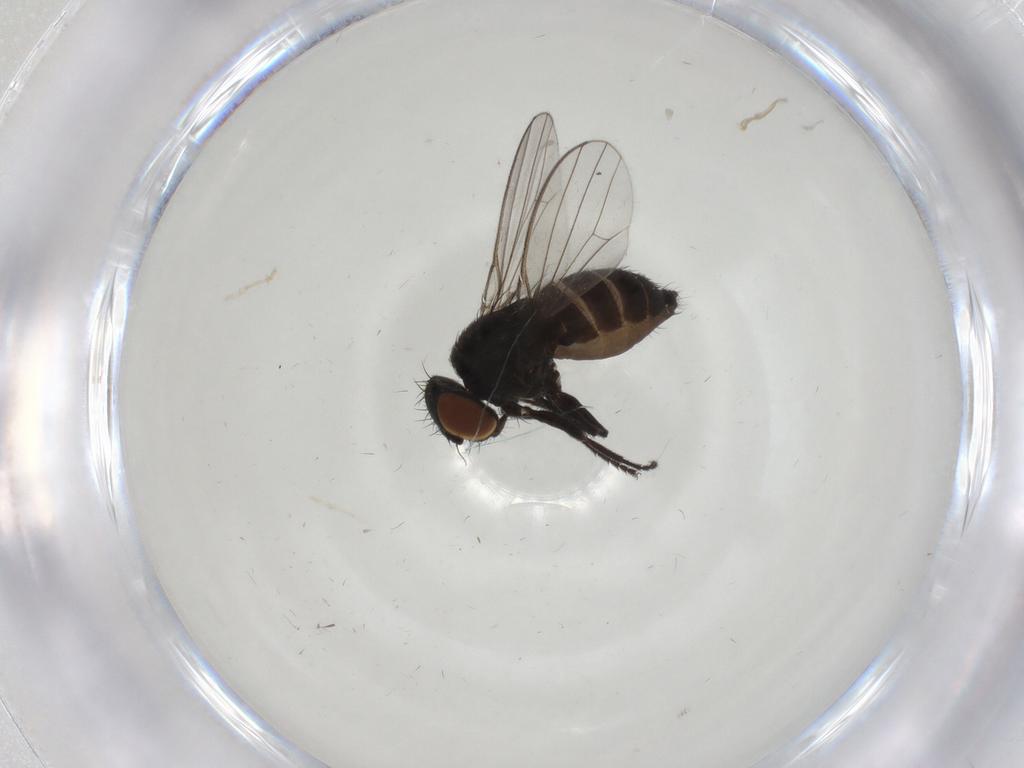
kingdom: Animalia
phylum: Arthropoda
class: Insecta
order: Diptera
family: Milichiidae
